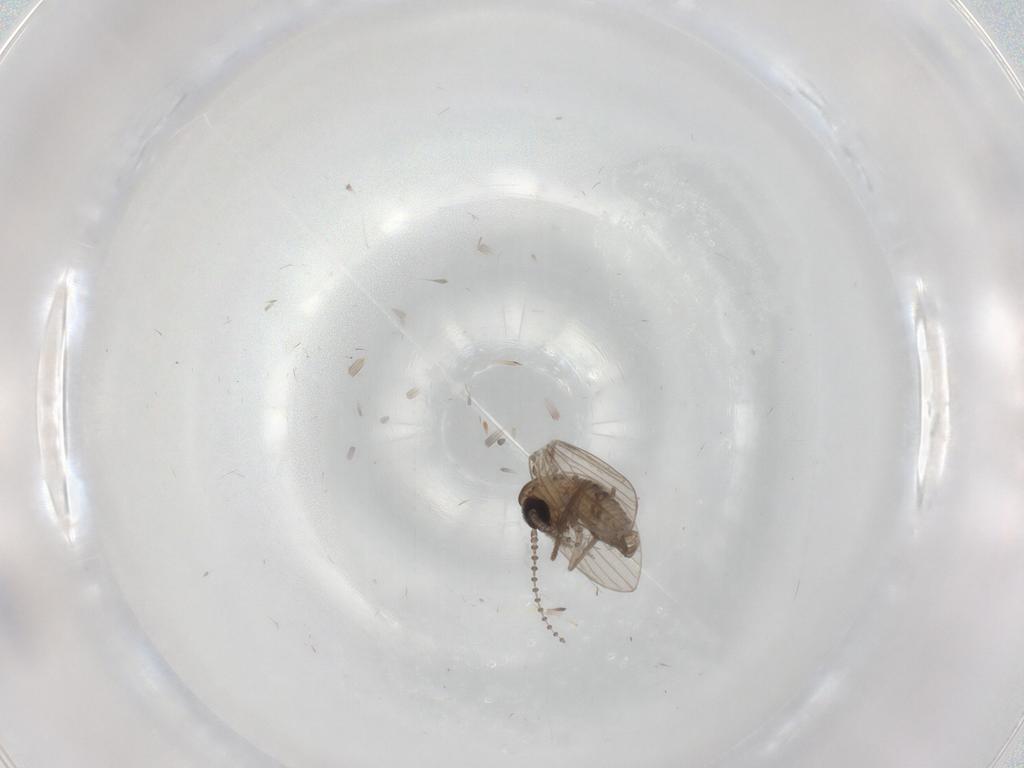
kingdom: Animalia
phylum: Arthropoda
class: Insecta
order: Diptera
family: Psychodidae
